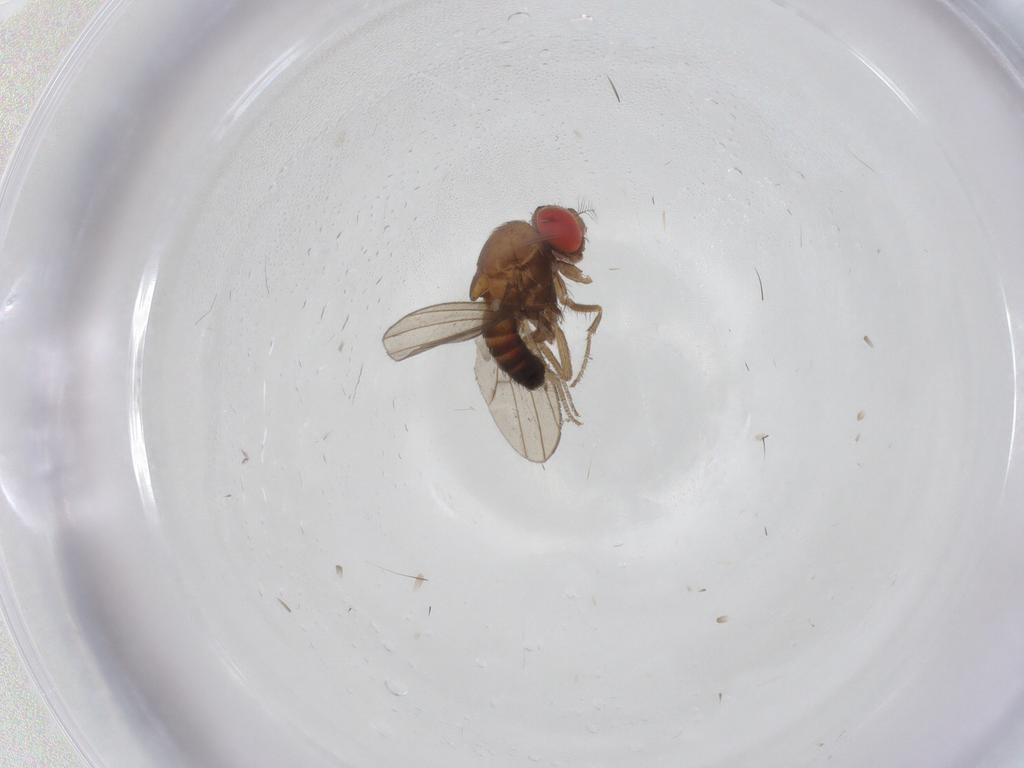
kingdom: Animalia
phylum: Arthropoda
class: Insecta
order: Diptera
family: Drosophilidae
